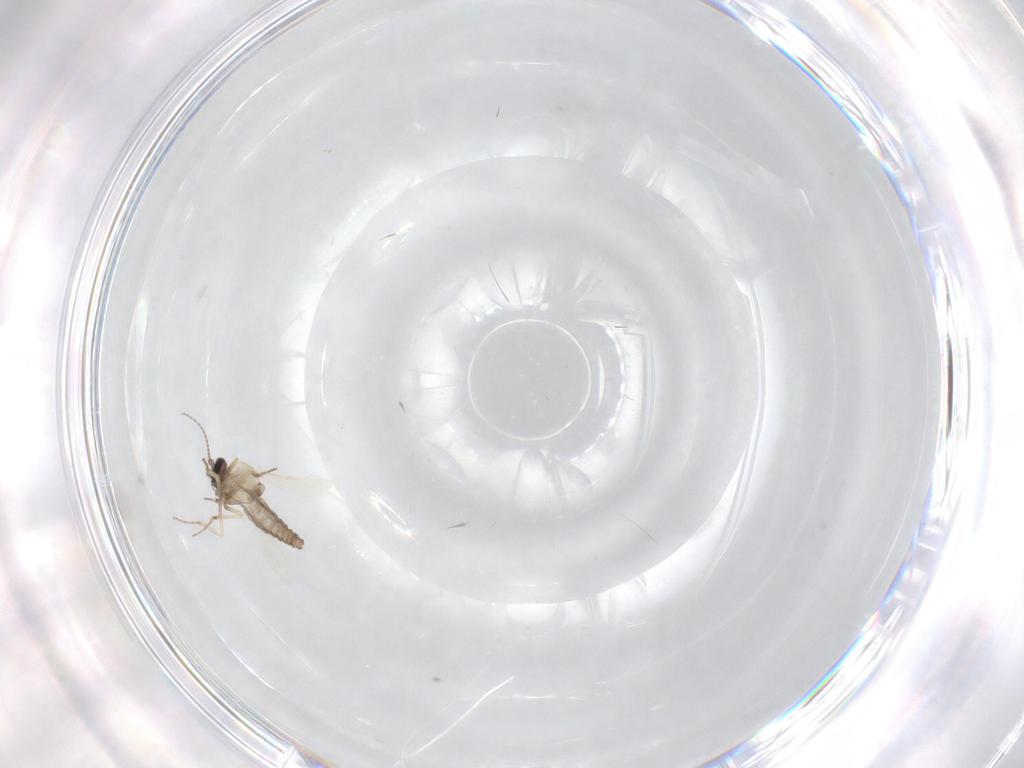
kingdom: Animalia
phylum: Arthropoda
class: Insecta
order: Diptera
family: Ceratopogonidae
